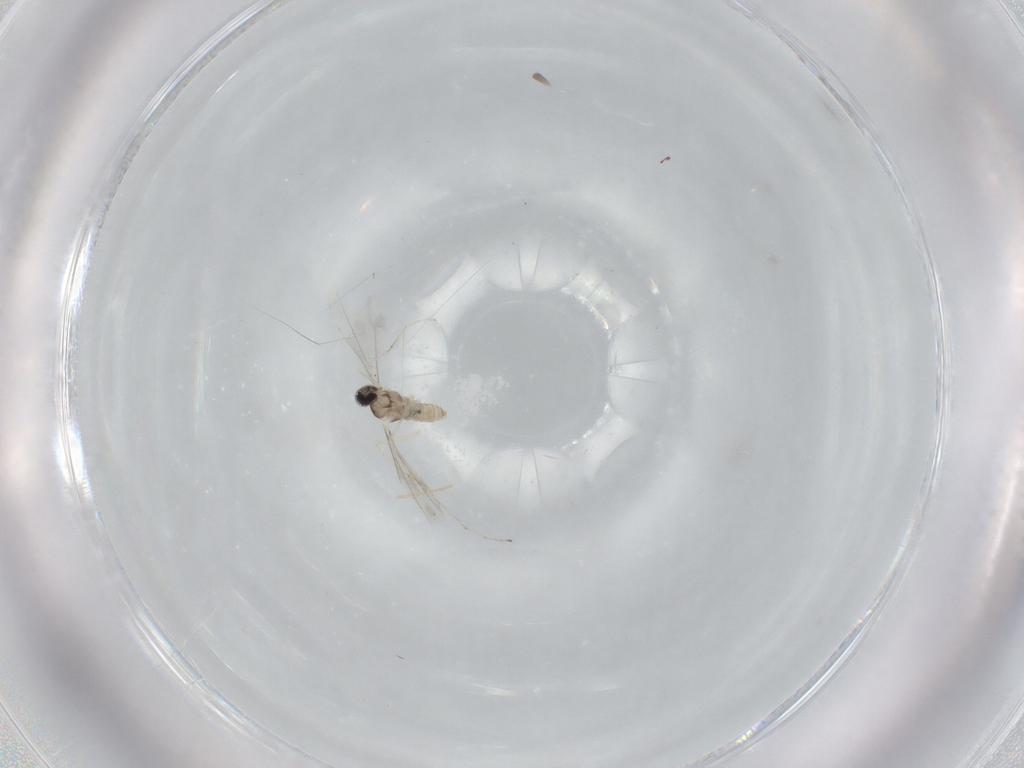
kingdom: Animalia
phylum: Arthropoda
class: Insecta
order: Diptera
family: Cecidomyiidae
